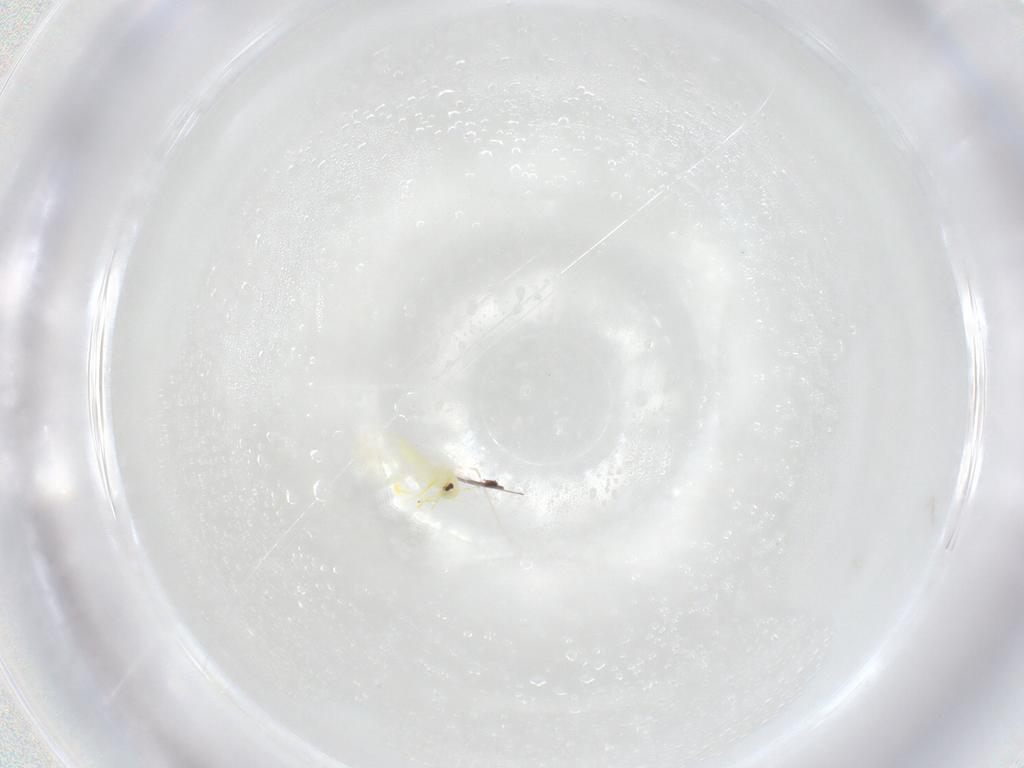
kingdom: Animalia
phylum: Arthropoda
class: Insecta
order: Hemiptera
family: Aleyrodidae
